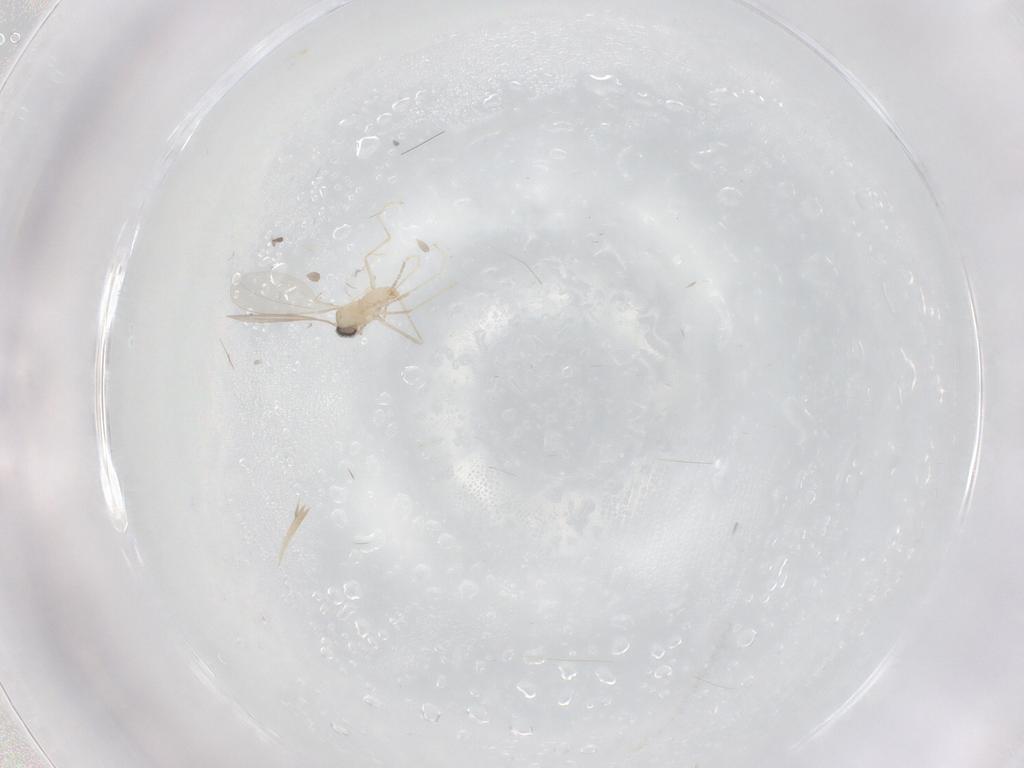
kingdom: Animalia
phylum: Arthropoda
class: Insecta
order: Diptera
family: Cecidomyiidae
